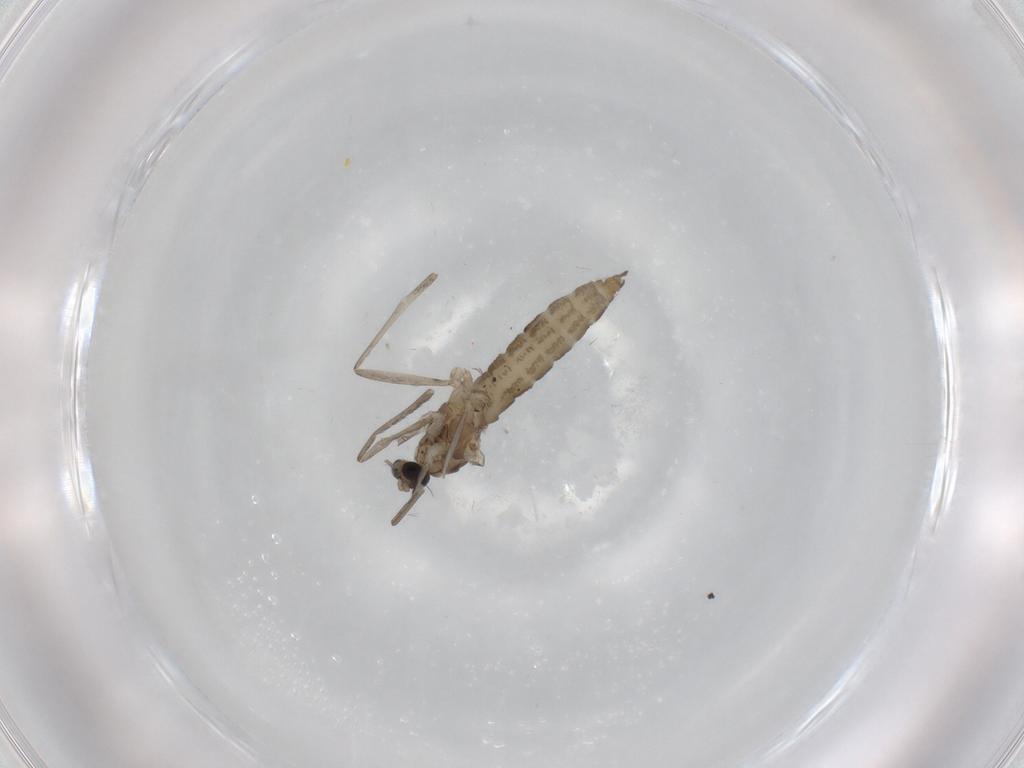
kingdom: Animalia
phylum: Arthropoda
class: Insecta
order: Diptera
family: Cecidomyiidae
